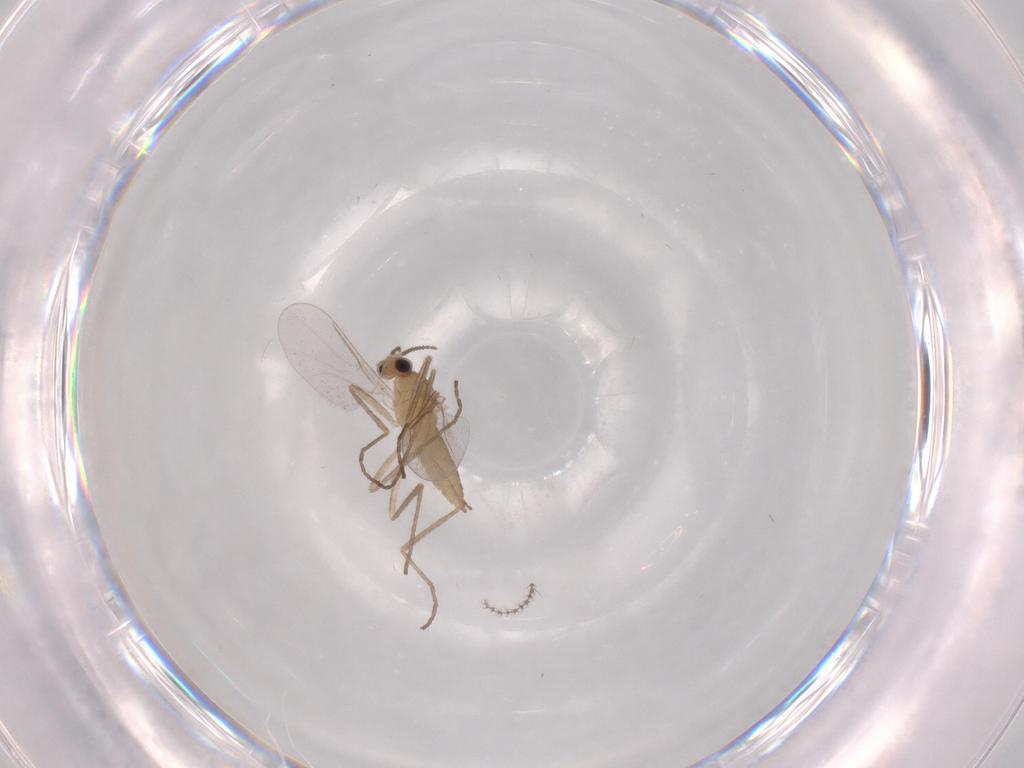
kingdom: Animalia
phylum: Arthropoda
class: Insecta
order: Diptera
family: Cecidomyiidae
